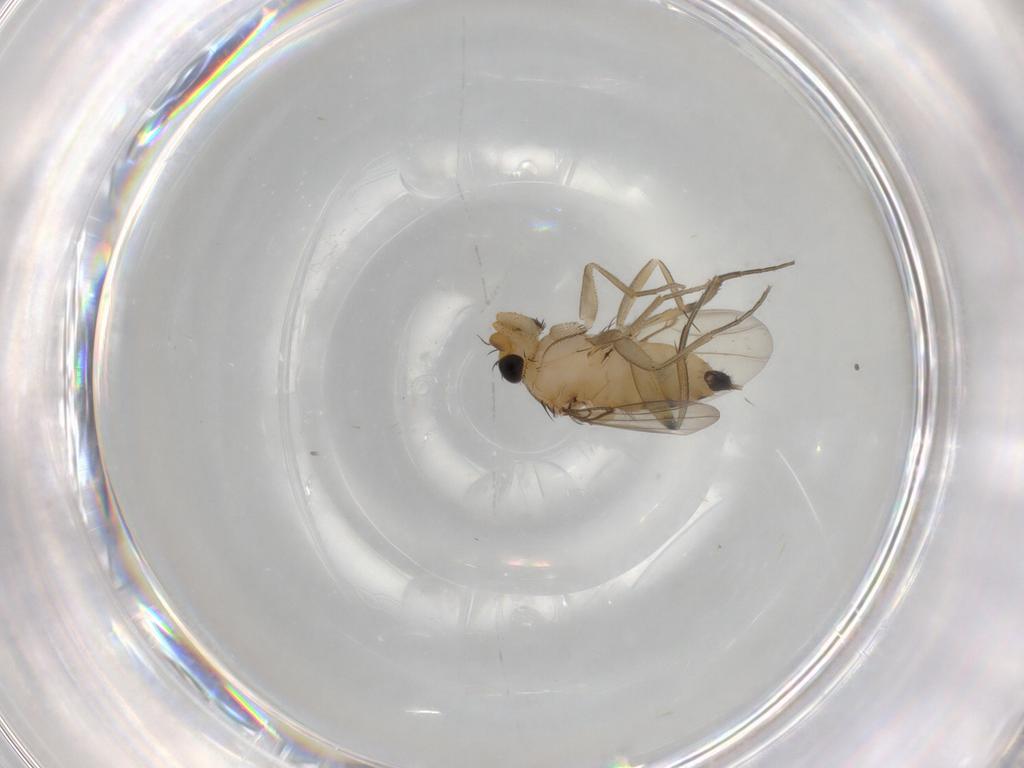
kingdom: Animalia
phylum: Arthropoda
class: Insecta
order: Diptera
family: Phoridae
